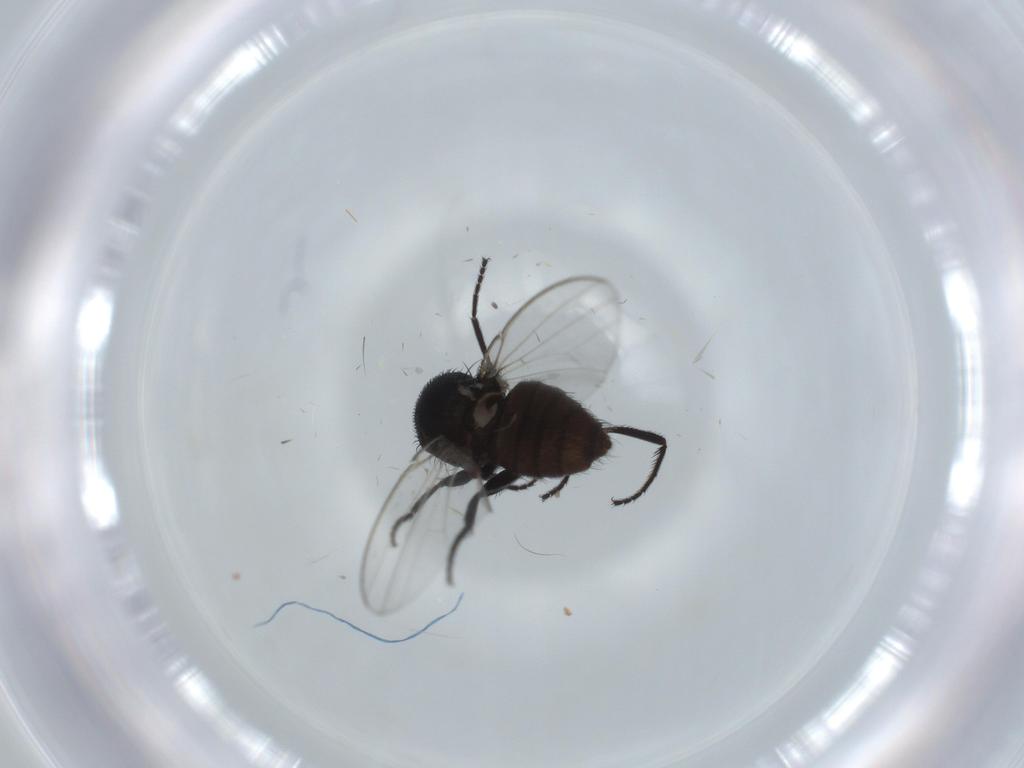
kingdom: Animalia
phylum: Arthropoda
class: Insecta
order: Diptera
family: Milichiidae
